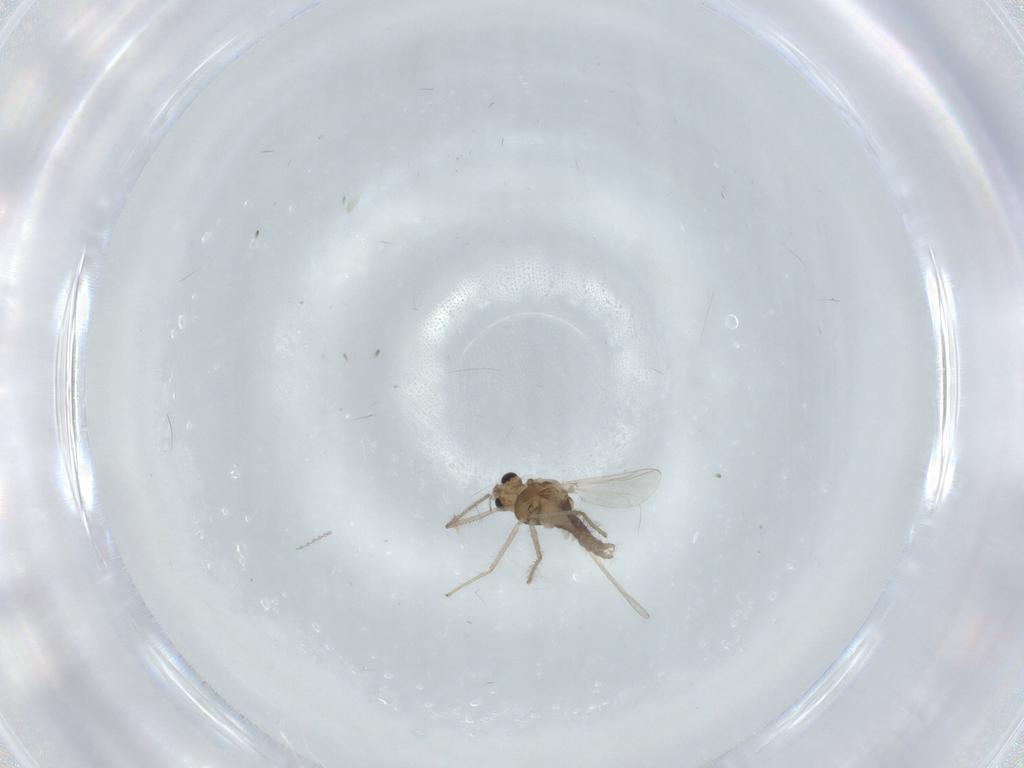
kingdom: Animalia
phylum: Arthropoda
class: Insecta
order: Diptera
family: Chironomidae
